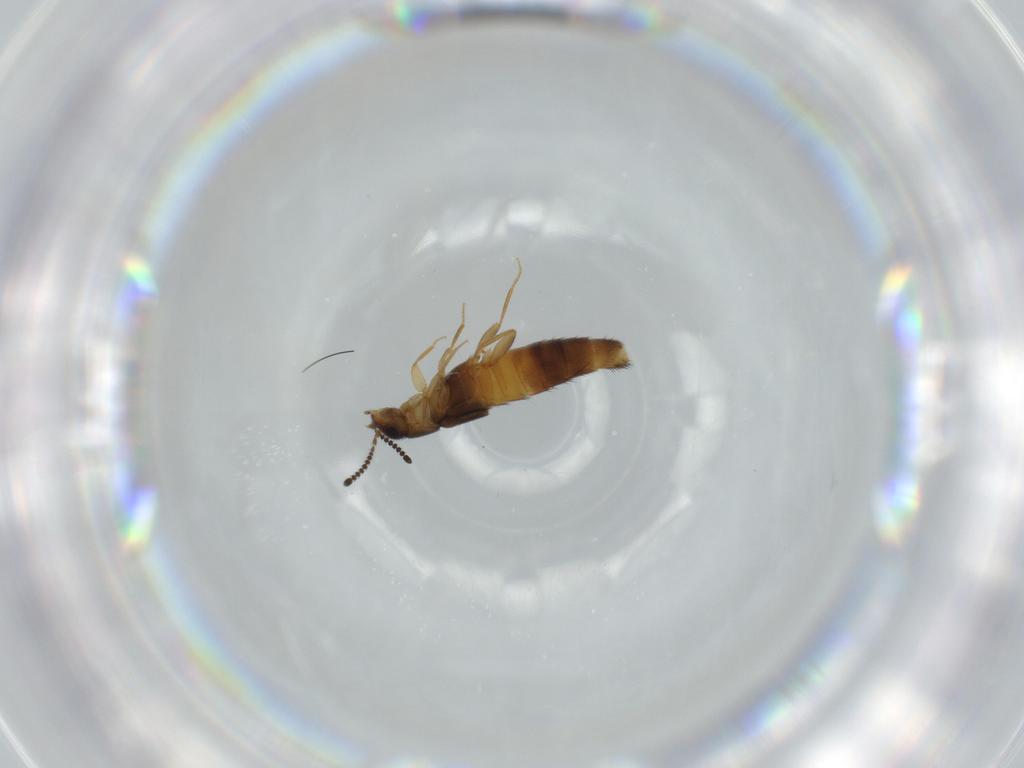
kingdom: Animalia
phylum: Arthropoda
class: Insecta
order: Coleoptera
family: Staphylinidae
